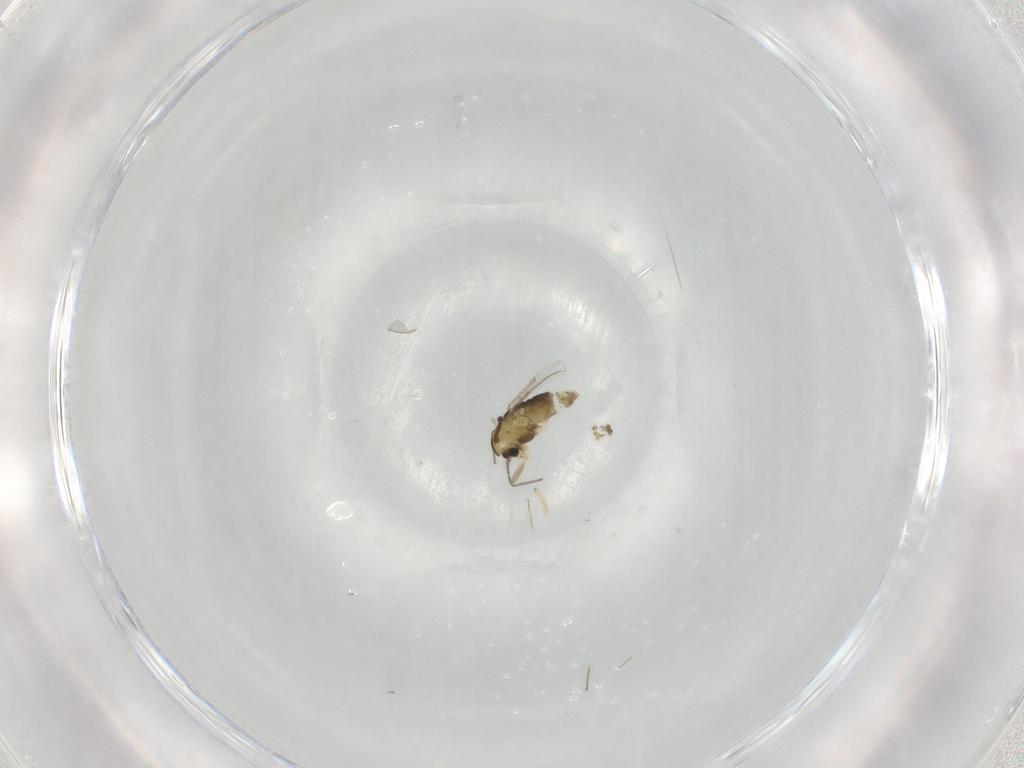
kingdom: Animalia
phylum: Arthropoda
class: Insecta
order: Diptera
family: Chironomidae
